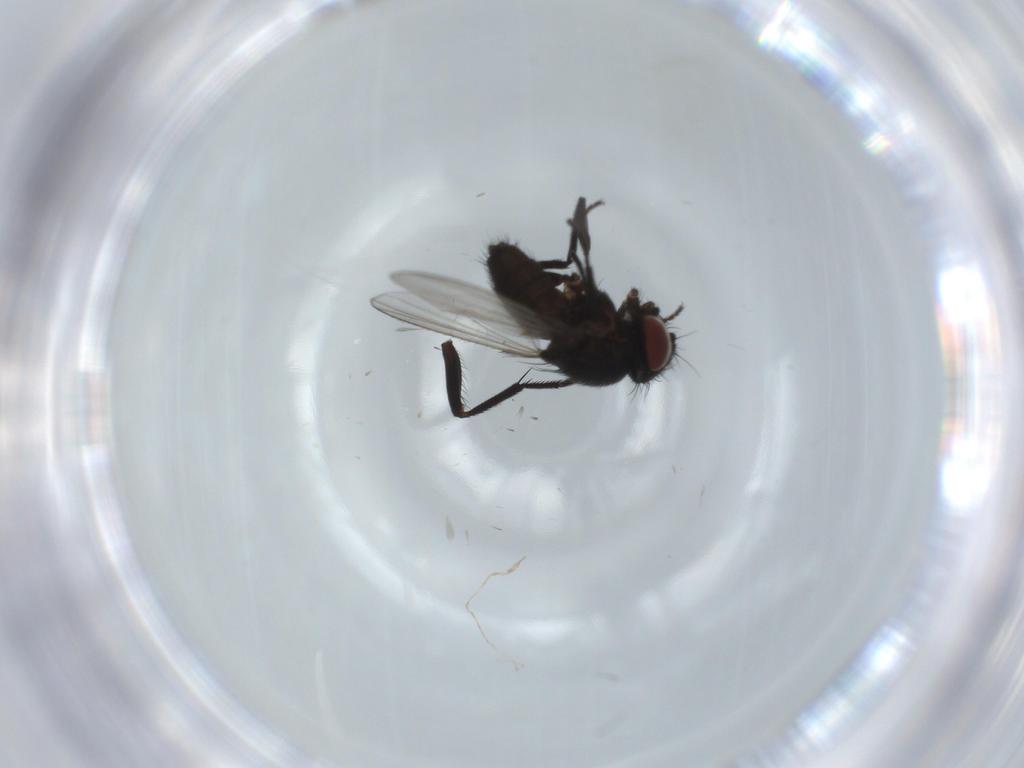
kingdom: Animalia
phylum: Arthropoda
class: Insecta
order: Diptera
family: Milichiidae
